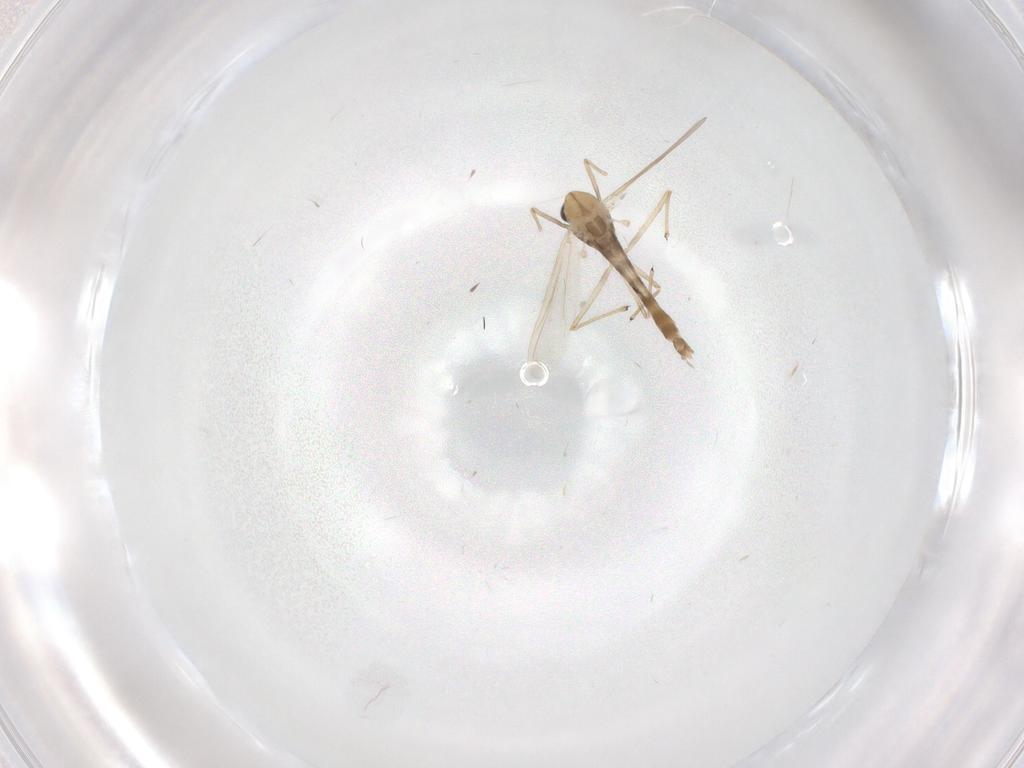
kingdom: Animalia
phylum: Arthropoda
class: Insecta
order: Diptera
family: Chironomidae
